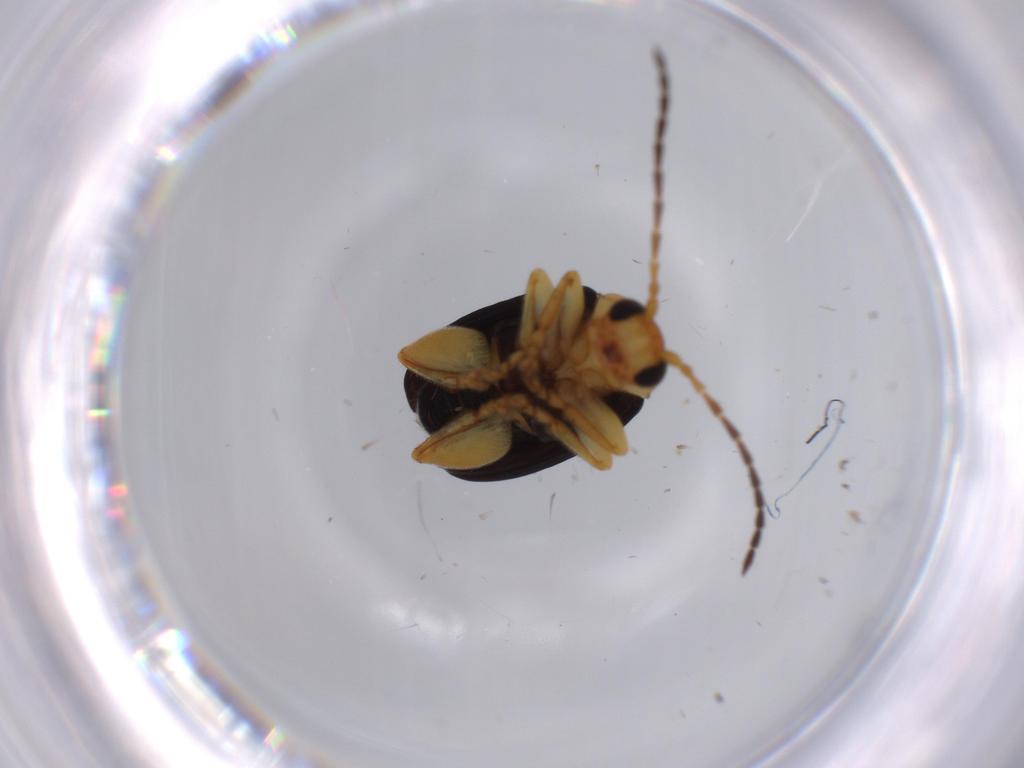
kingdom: Animalia
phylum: Arthropoda
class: Insecta
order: Coleoptera
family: Chrysomelidae
